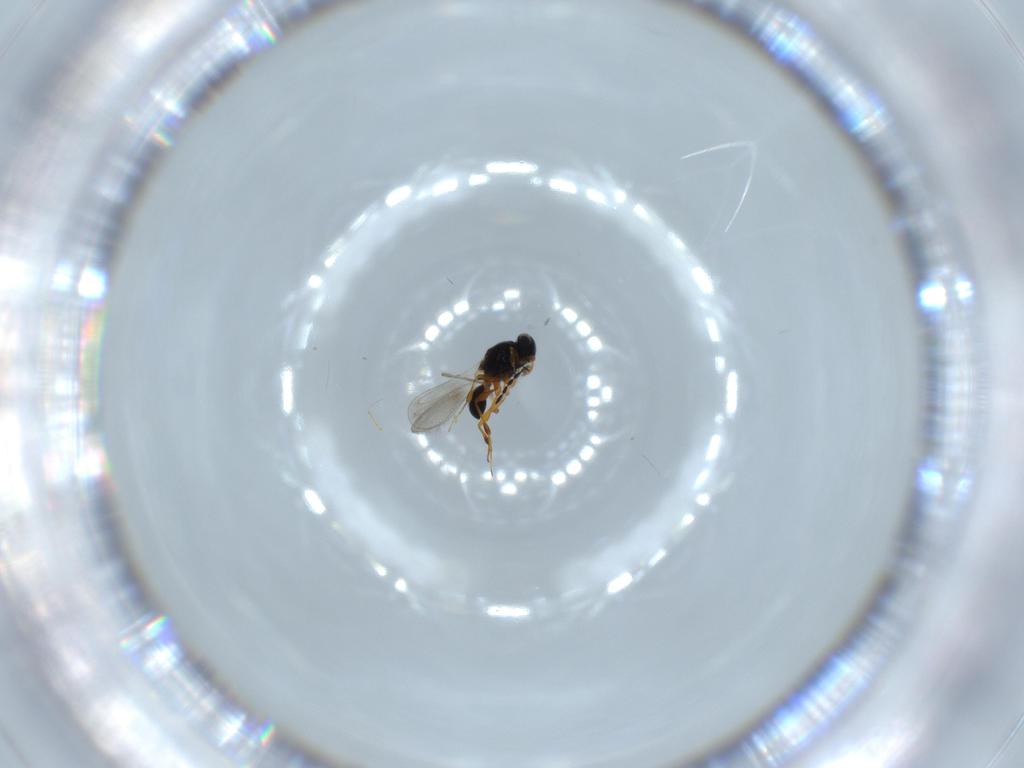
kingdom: Animalia
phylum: Arthropoda
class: Insecta
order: Hymenoptera
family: Platygastridae
